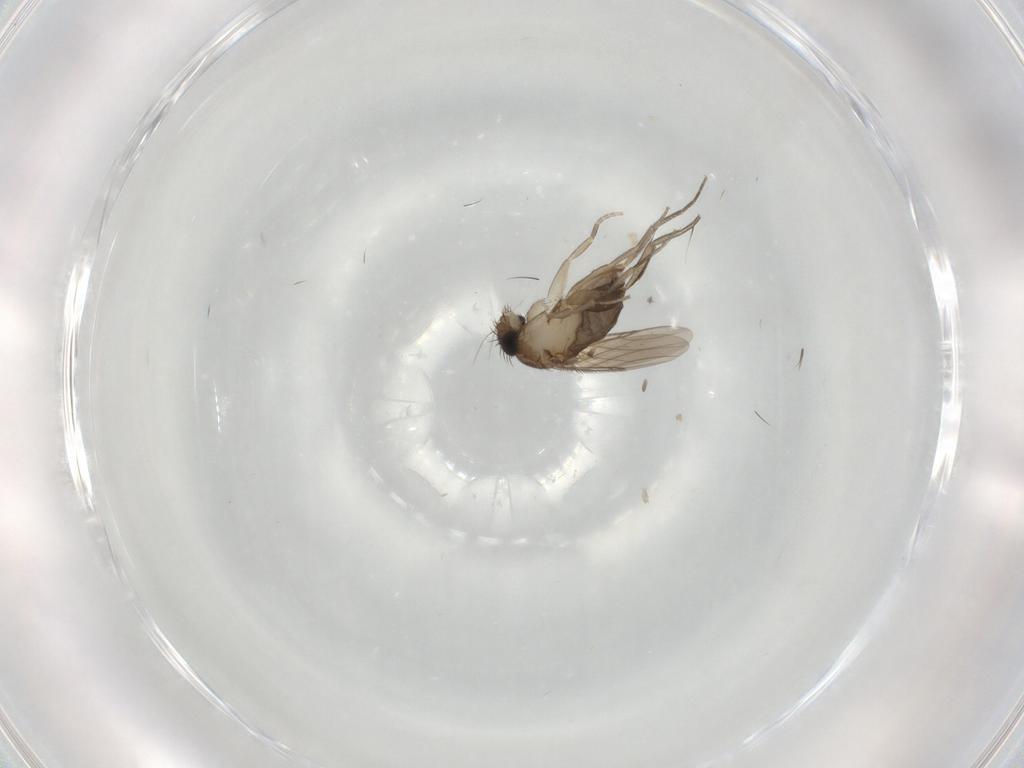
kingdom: Animalia
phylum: Arthropoda
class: Insecta
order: Diptera
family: Phoridae
